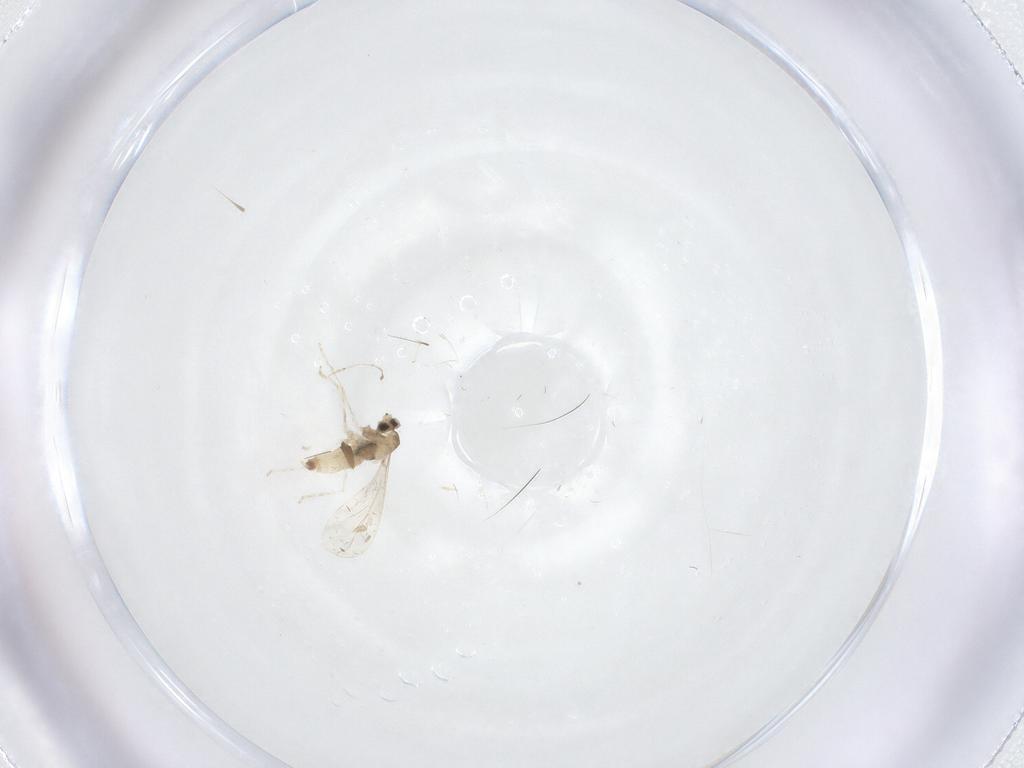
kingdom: Animalia
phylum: Arthropoda
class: Insecta
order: Diptera
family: Cecidomyiidae
